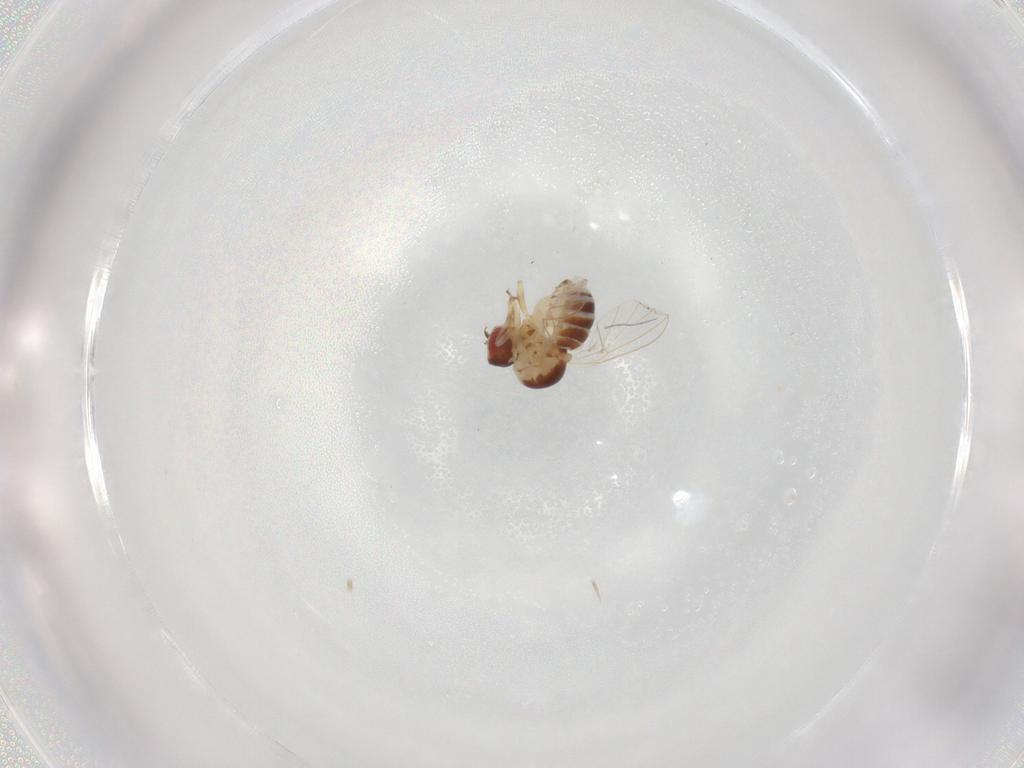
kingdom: Animalia
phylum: Arthropoda
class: Insecta
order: Diptera
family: Bombyliidae
